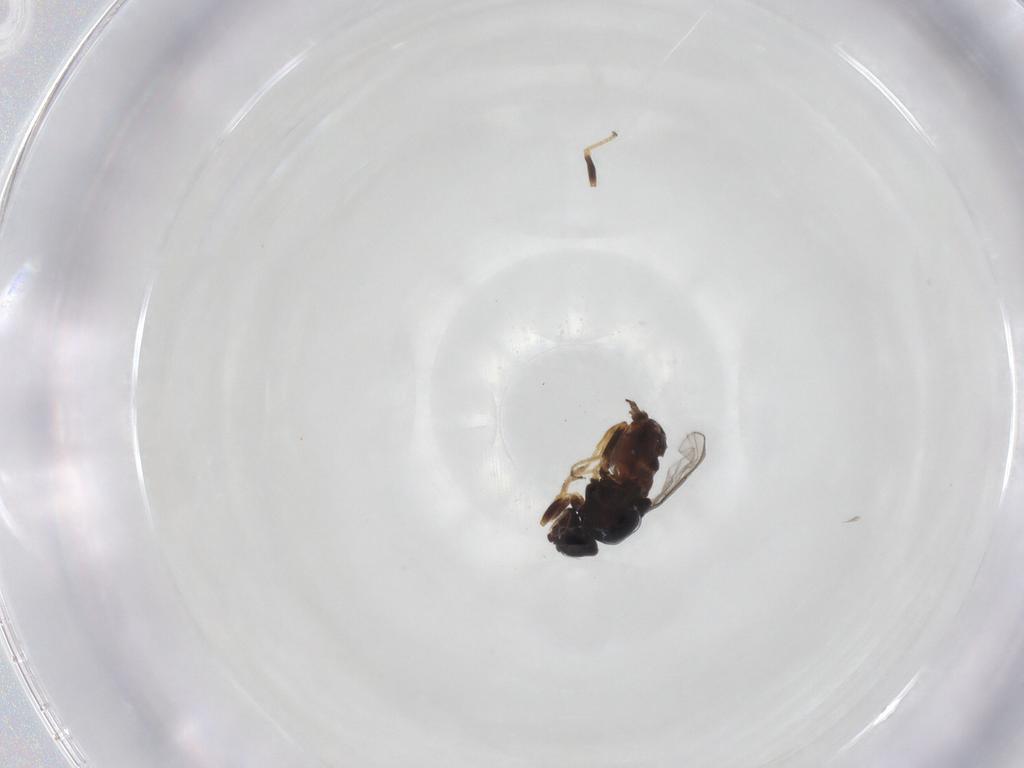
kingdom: Animalia
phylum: Arthropoda
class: Insecta
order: Diptera
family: Chloropidae
